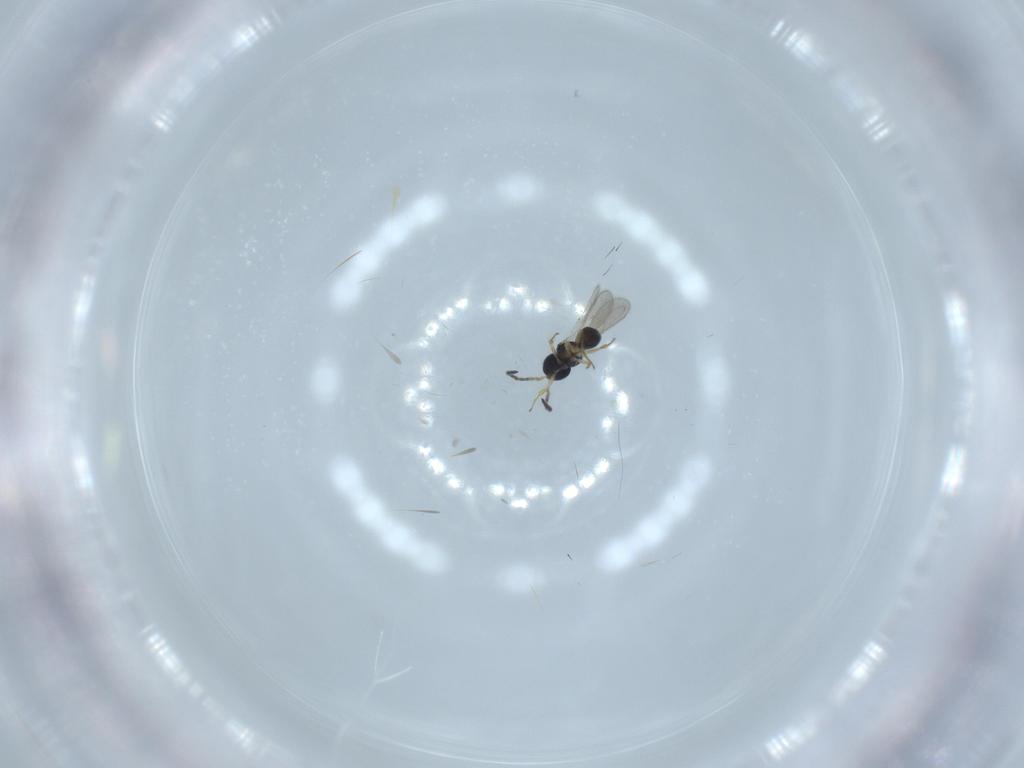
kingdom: Animalia
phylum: Arthropoda
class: Insecta
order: Hymenoptera
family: Scelionidae
